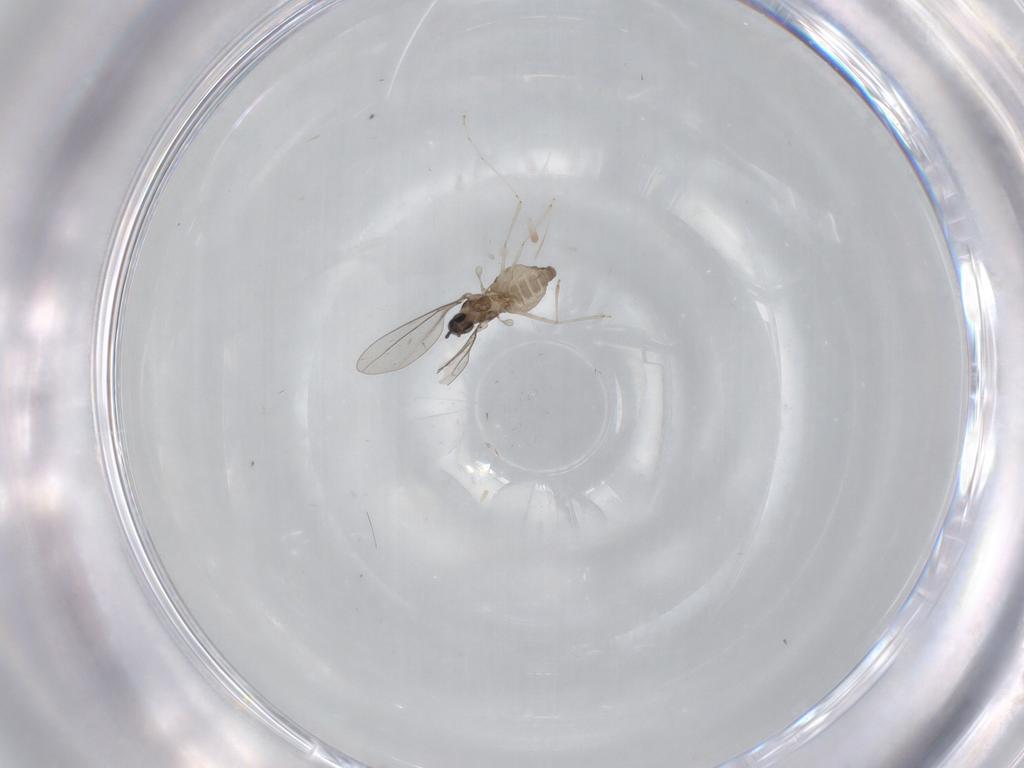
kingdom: Animalia
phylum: Arthropoda
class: Insecta
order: Diptera
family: Cecidomyiidae
